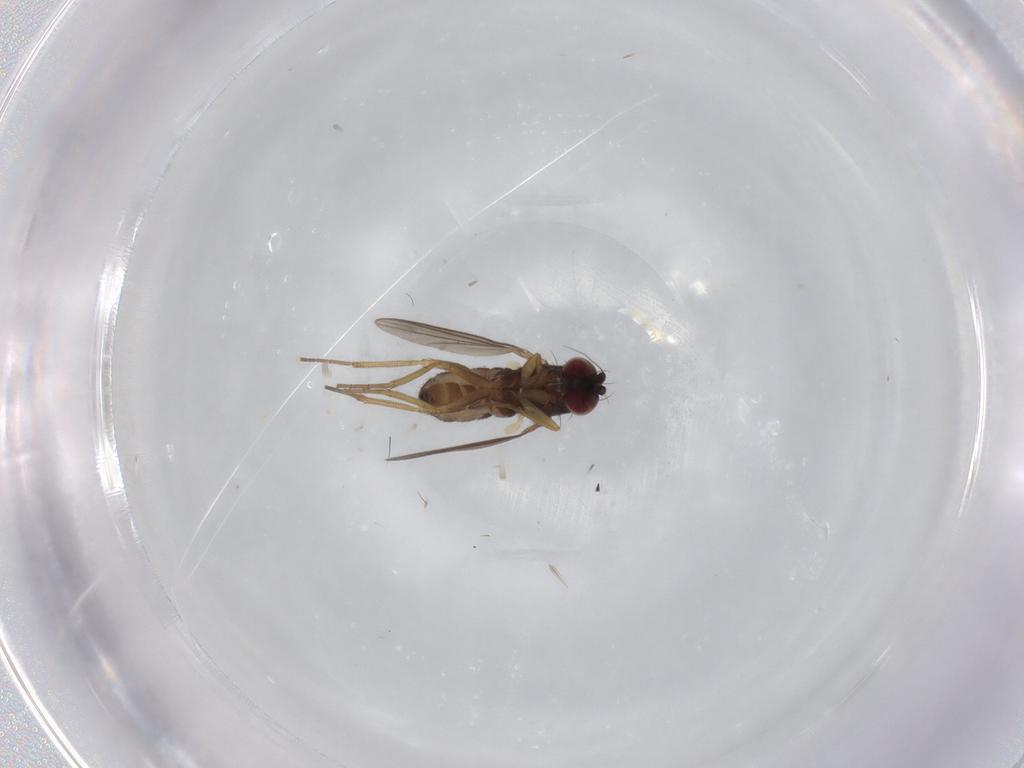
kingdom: Animalia
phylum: Arthropoda
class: Insecta
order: Diptera
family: Dolichopodidae
